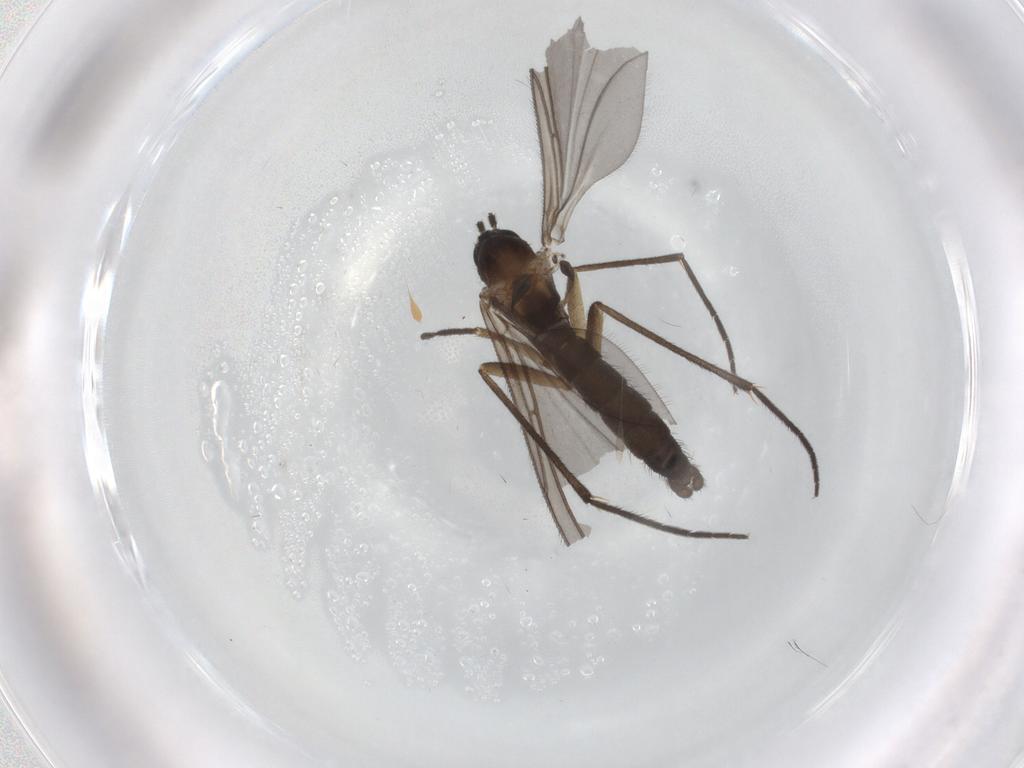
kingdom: Animalia
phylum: Arthropoda
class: Insecta
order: Diptera
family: Sciaridae
